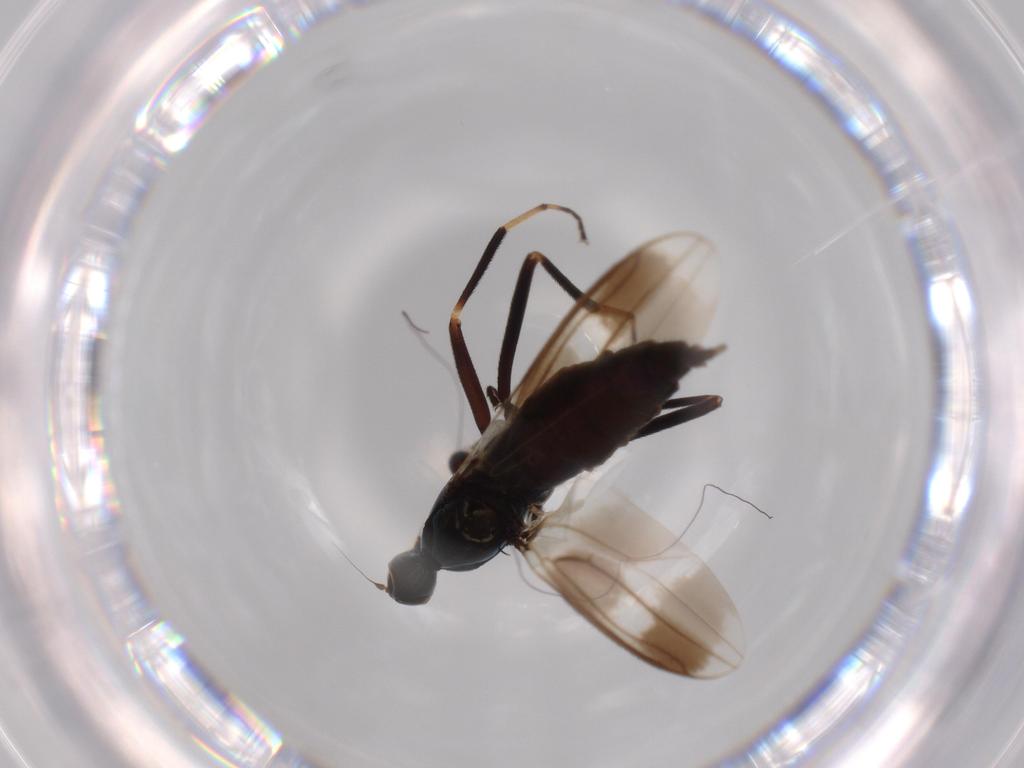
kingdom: Animalia
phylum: Arthropoda
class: Insecta
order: Diptera
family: Hybotidae
